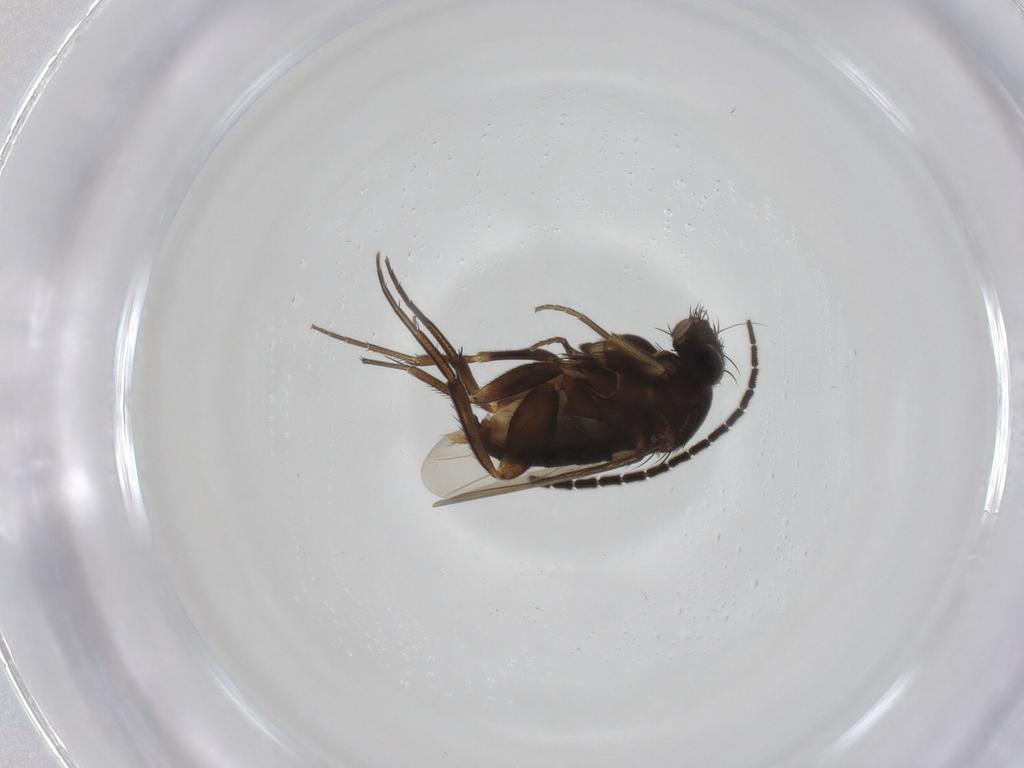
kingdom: Animalia
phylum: Arthropoda
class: Insecta
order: Diptera
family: Phoridae
